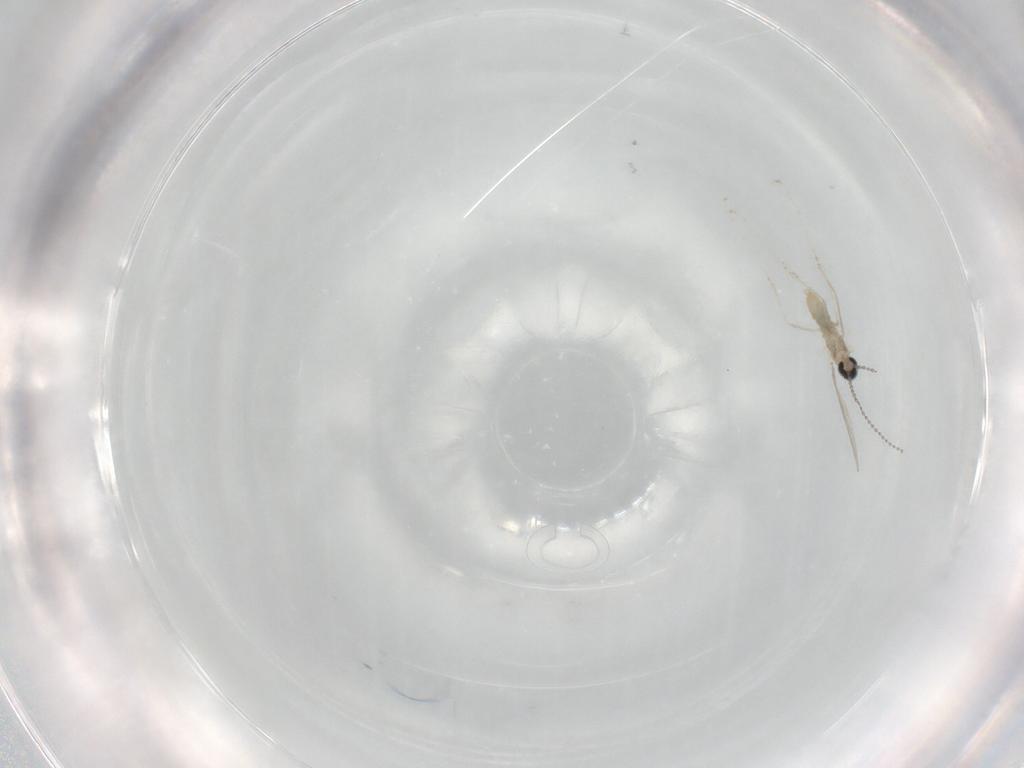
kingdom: Animalia
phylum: Arthropoda
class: Insecta
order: Diptera
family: Cecidomyiidae
